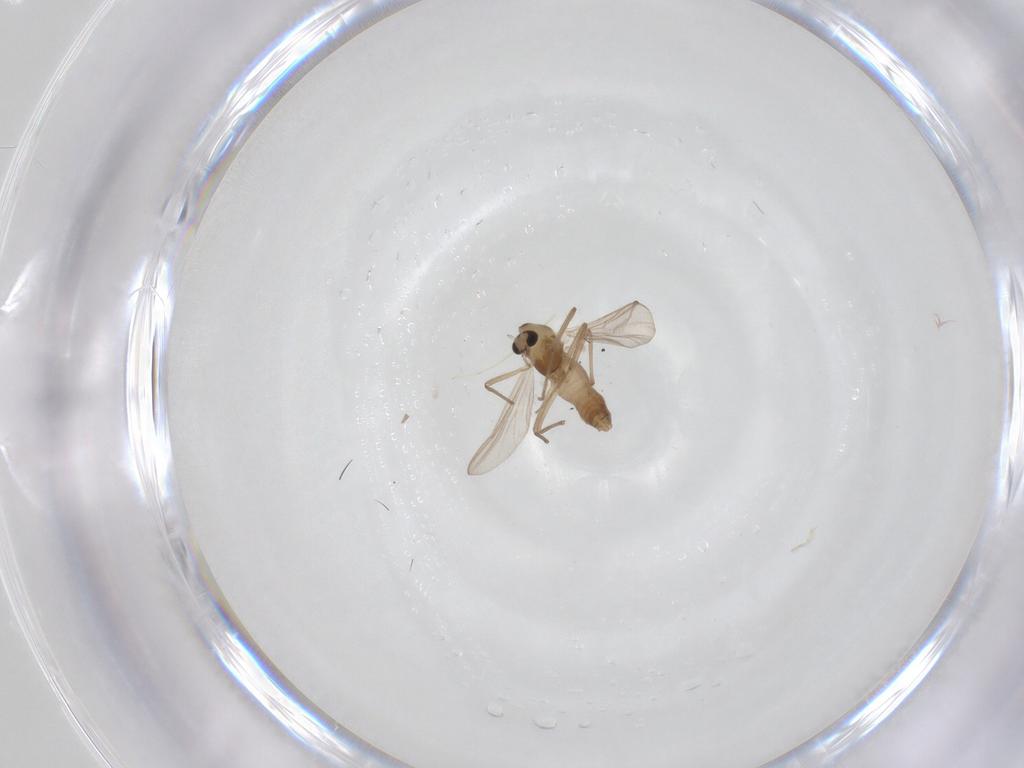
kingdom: Animalia
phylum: Arthropoda
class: Insecta
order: Diptera
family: Chironomidae
